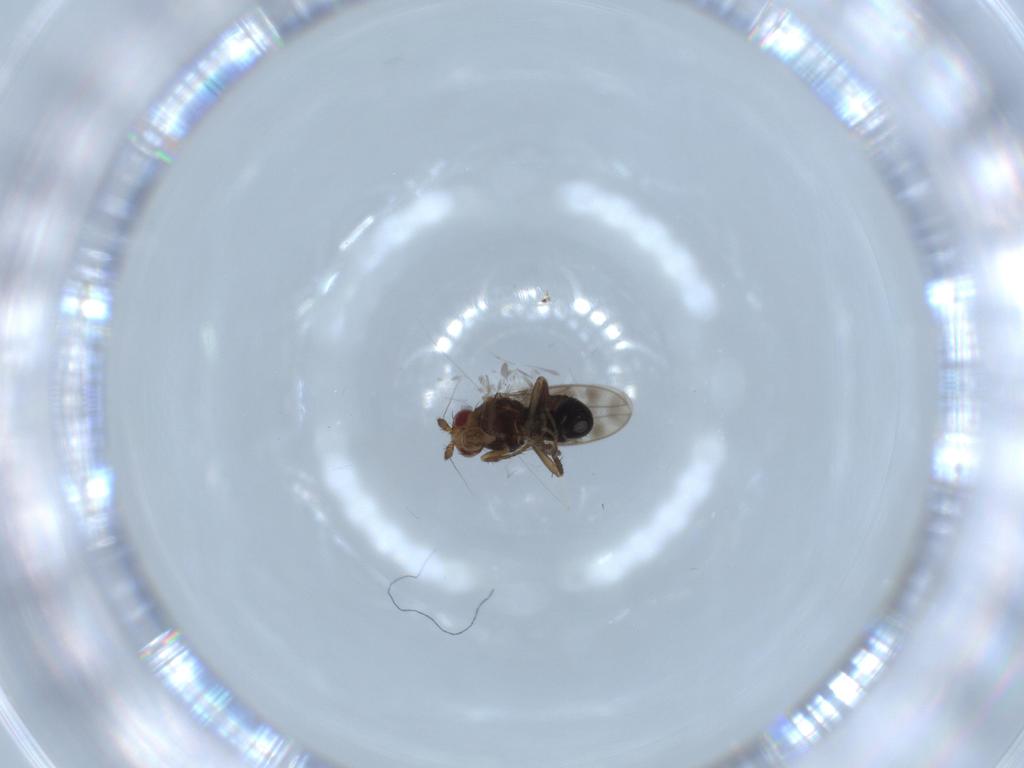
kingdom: Animalia
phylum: Arthropoda
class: Insecta
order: Diptera
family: Sphaeroceridae
